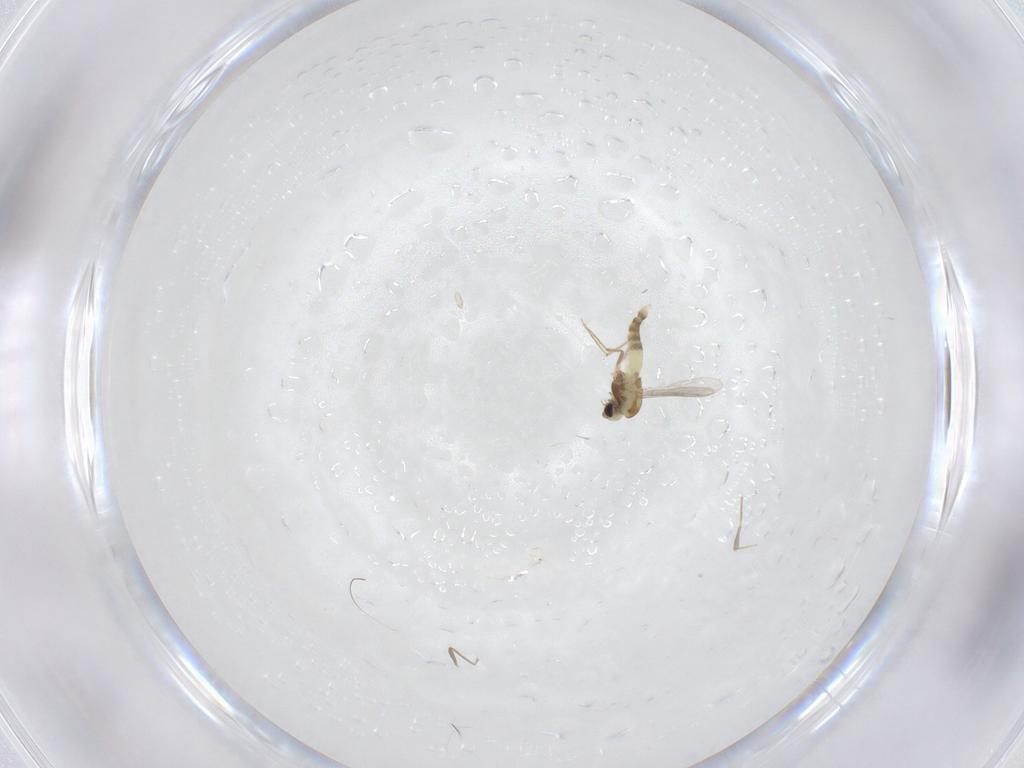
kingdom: Animalia
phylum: Arthropoda
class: Insecta
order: Diptera
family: Chironomidae
